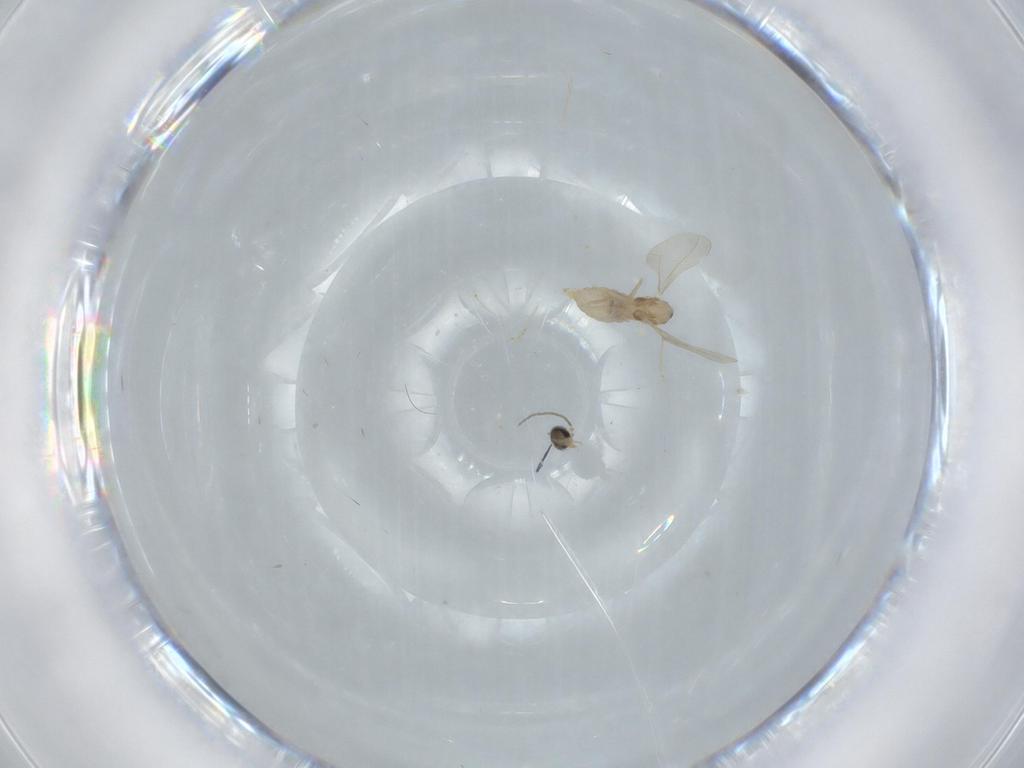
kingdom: Animalia
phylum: Arthropoda
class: Insecta
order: Diptera
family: Cecidomyiidae
